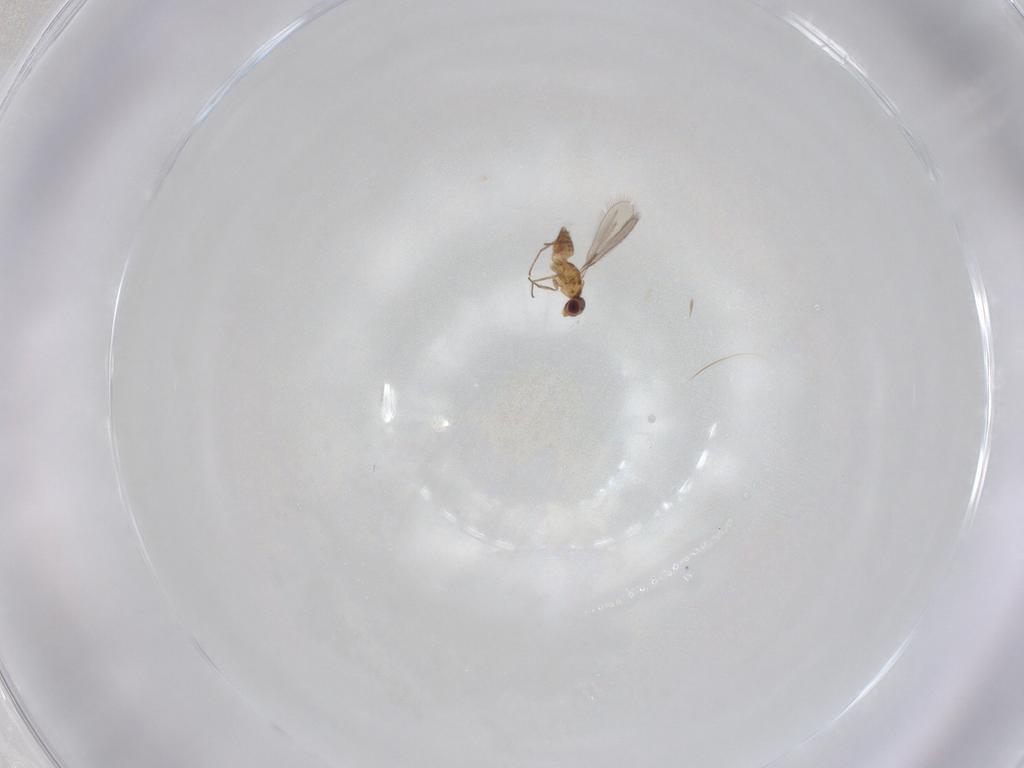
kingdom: Animalia
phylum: Arthropoda
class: Insecta
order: Hymenoptera
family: Mymaridae
